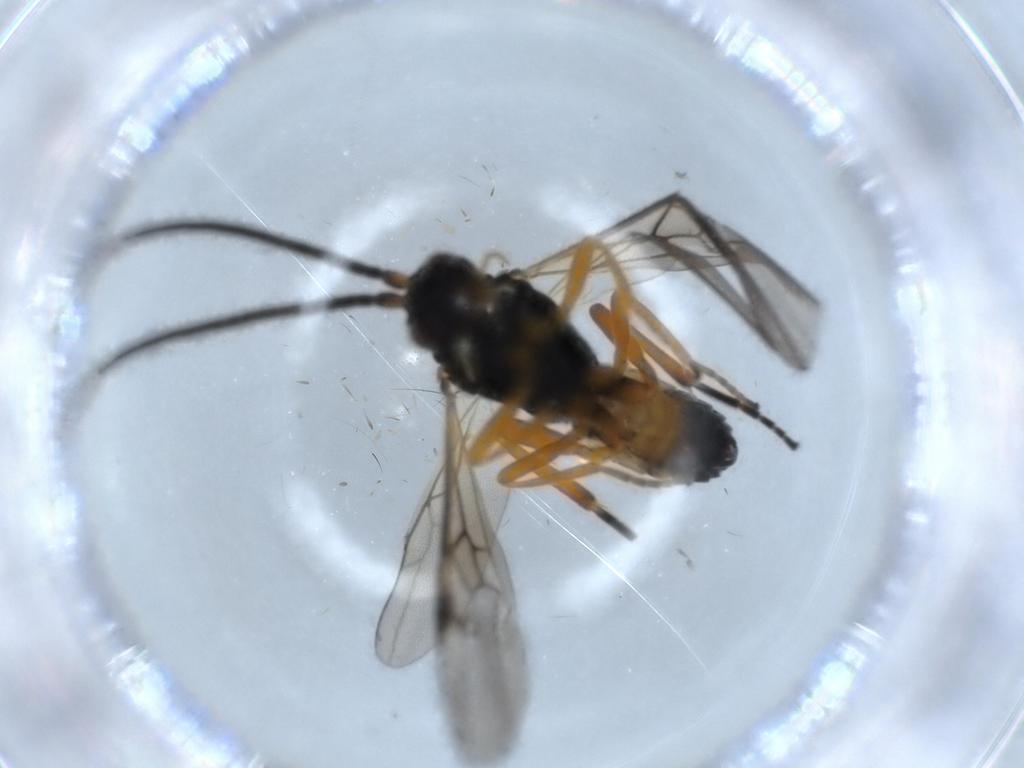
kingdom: Animalia
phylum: Arthropoda
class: Insecta
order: Hymenoptera
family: Braconidae
